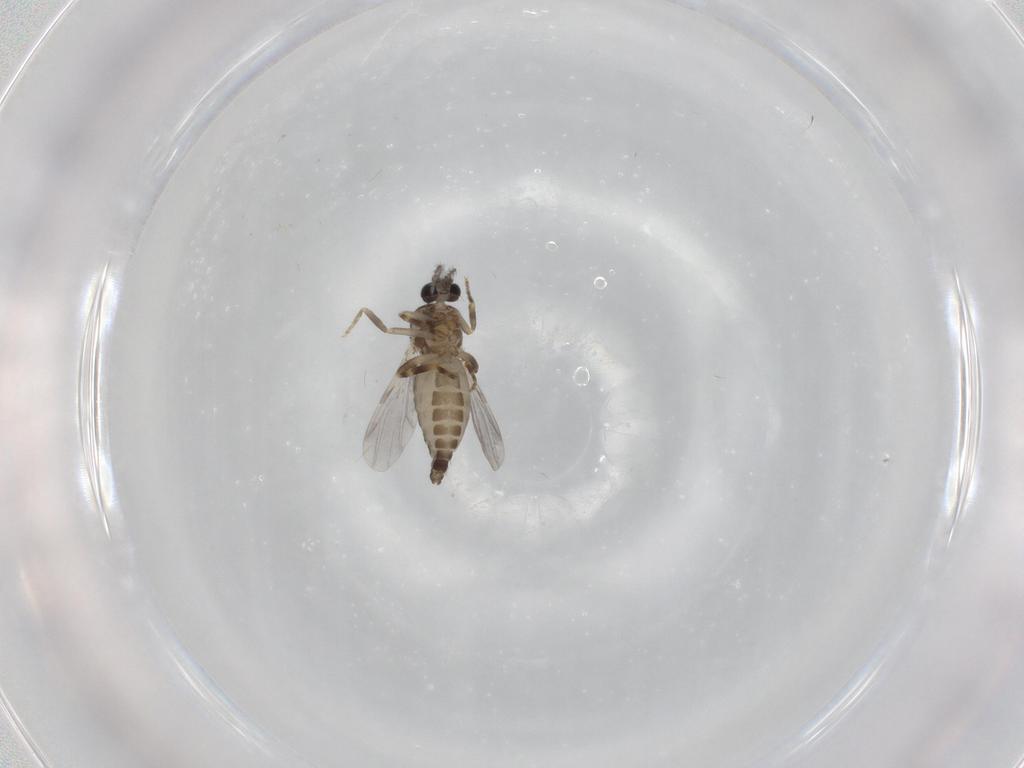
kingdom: Animalia
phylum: Arthropoda
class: Insecta
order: Diptera
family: Ceratopogonidae
